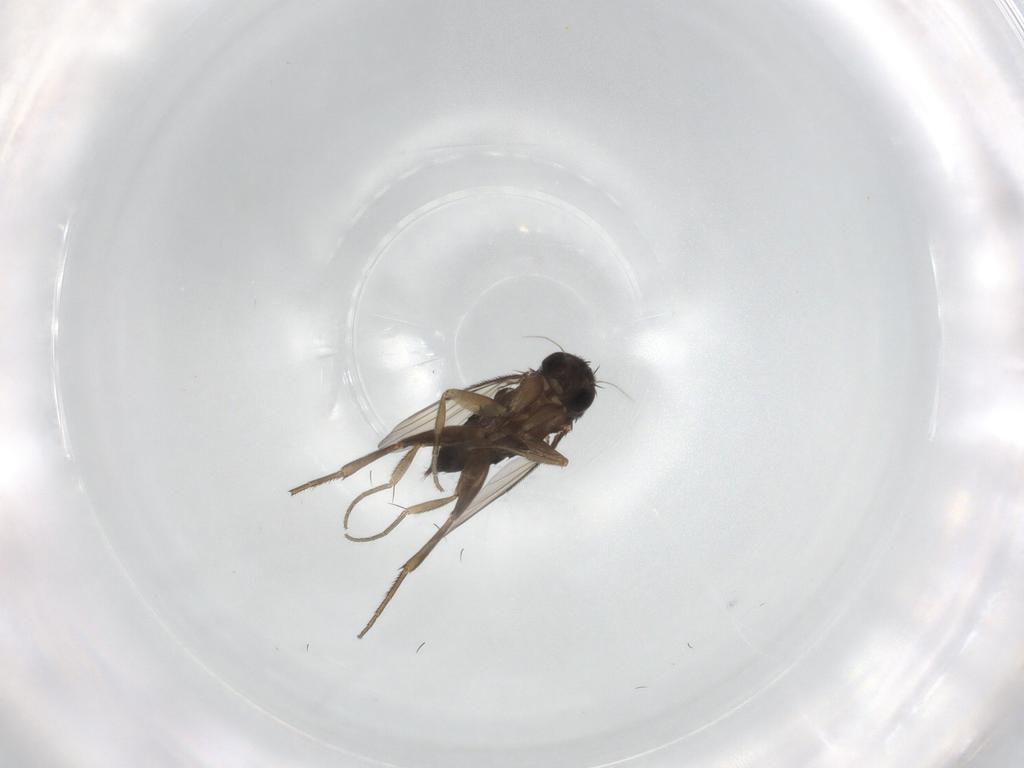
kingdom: Animalia
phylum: Arthropoda
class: Insecta
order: Diptera
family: Phoridae
